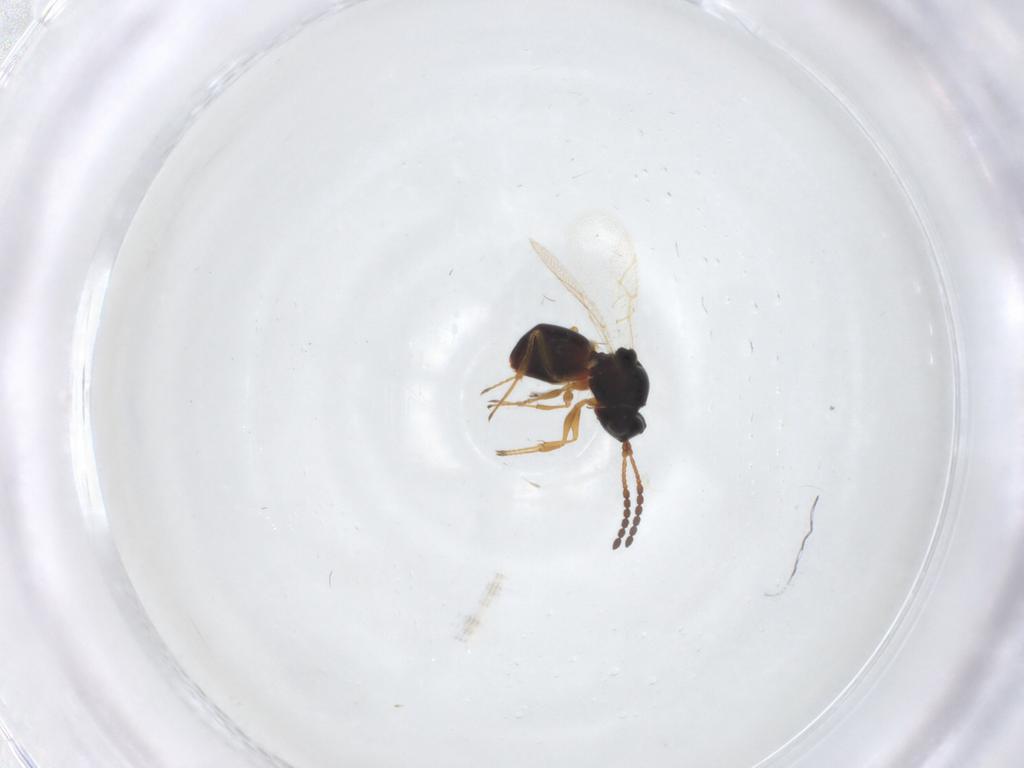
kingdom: Animalia
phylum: Arthropoda
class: Insecta
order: Hymenoptera
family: Figitidae
